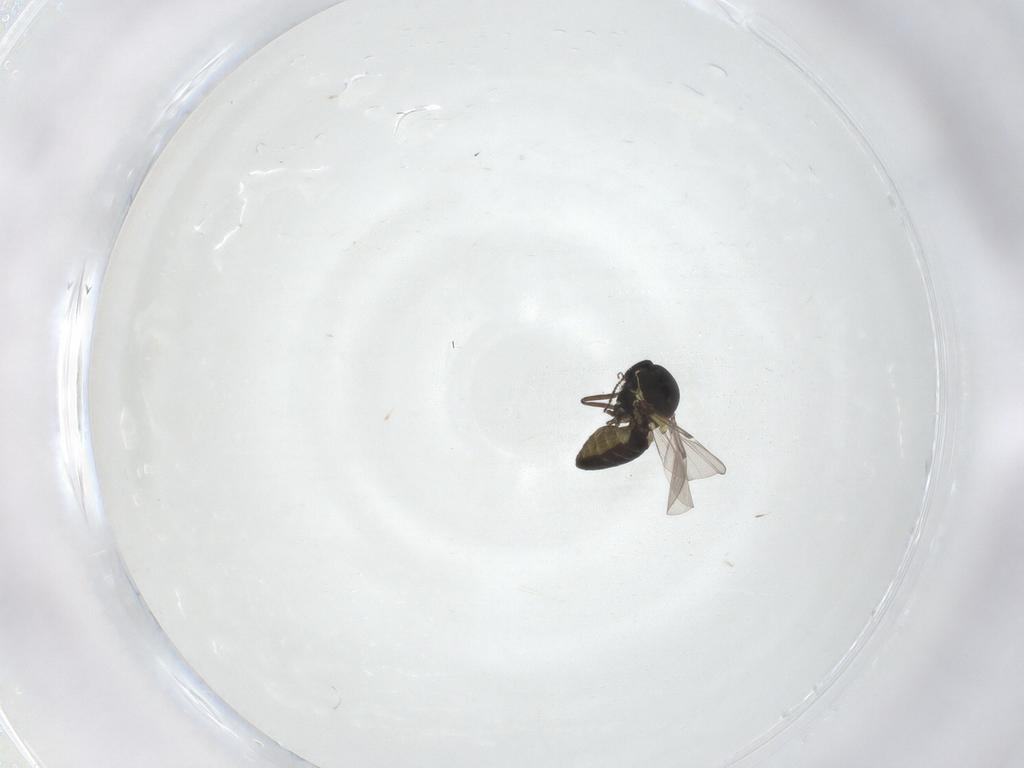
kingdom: Animalia
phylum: Arthropoda
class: Insecta
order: Diptera
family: Ceratopogonidae
